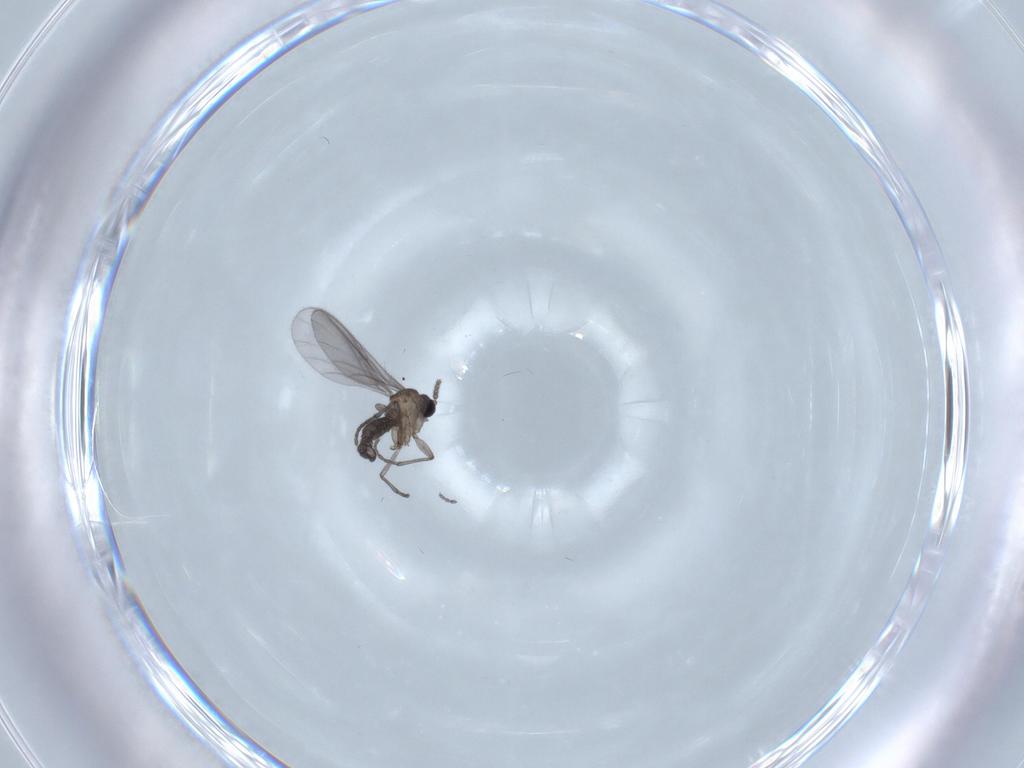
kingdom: Animalia
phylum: Arthropoda
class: Insecta
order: Diptera
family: Sciaridae
